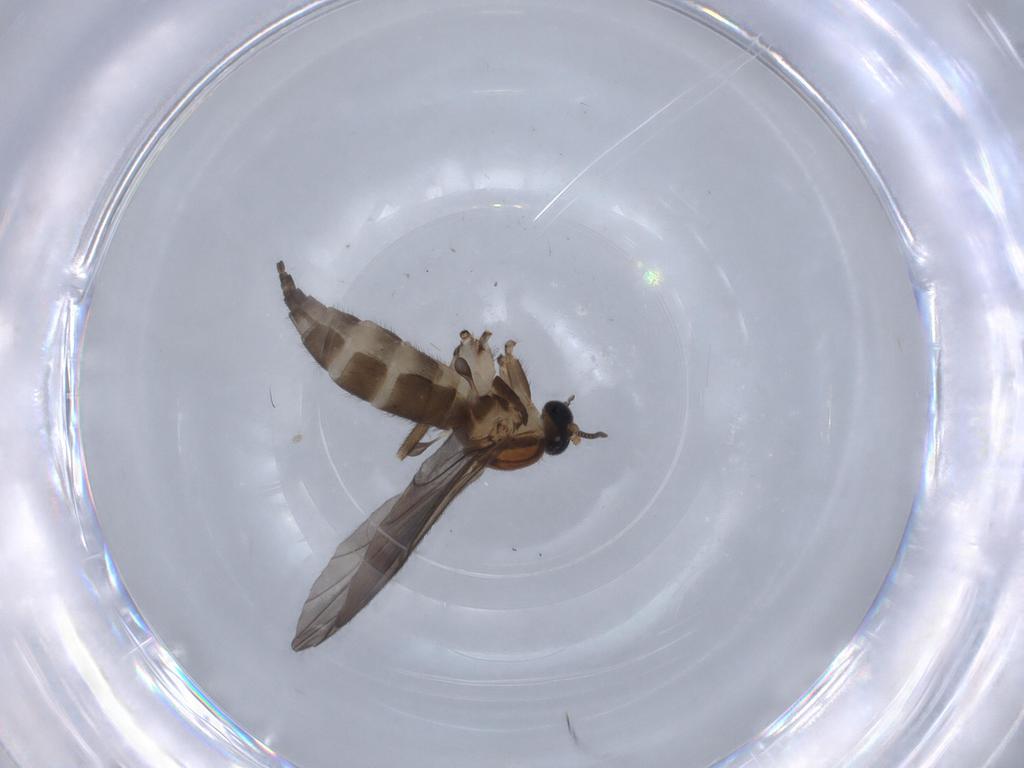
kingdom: Animalia
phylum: Arthropoda
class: Insecta
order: Diptera
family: Sciaridae
